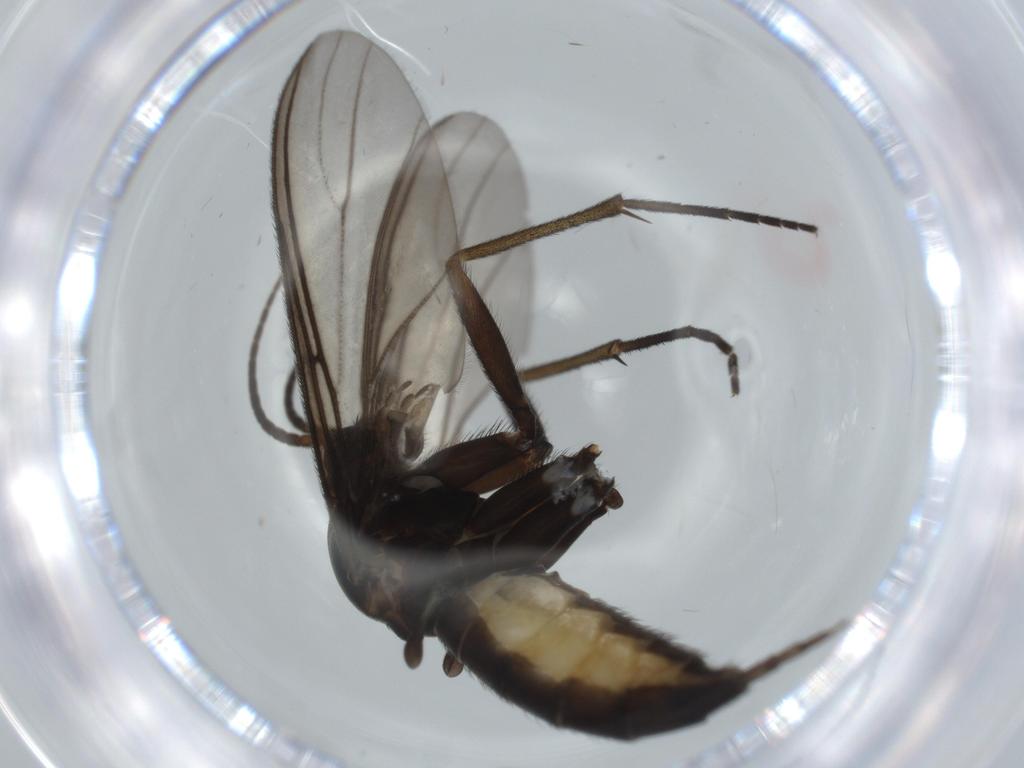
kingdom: Animalia
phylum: Arthropoda
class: Insecta
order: Diptera
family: Sciaridae
